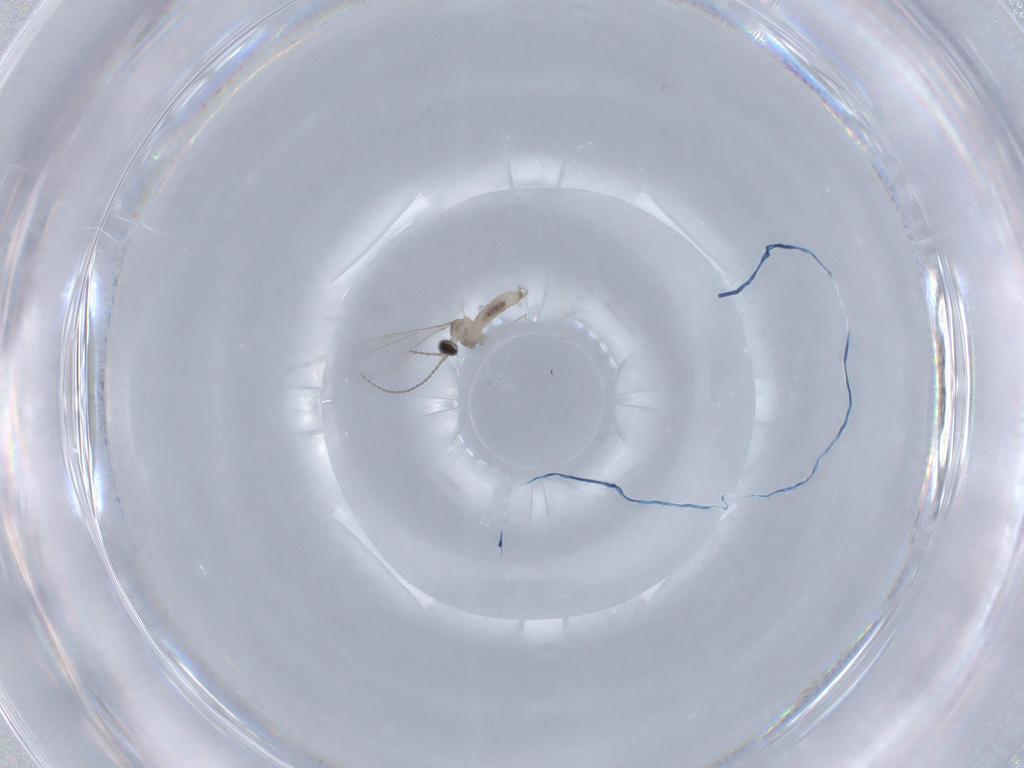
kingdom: Animalia
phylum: Arthropoda
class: Insecta
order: Diptera
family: Cecidomyiidae
